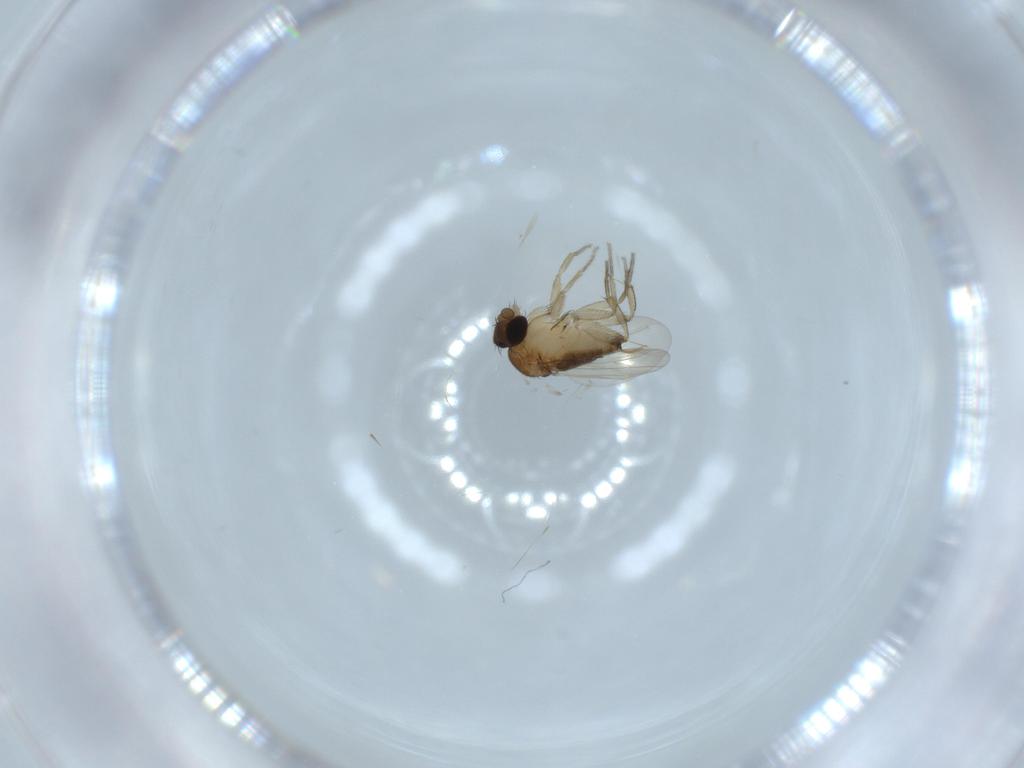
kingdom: Animalia
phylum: Arthropoda
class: Insecta
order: Diptera
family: Phoridae
